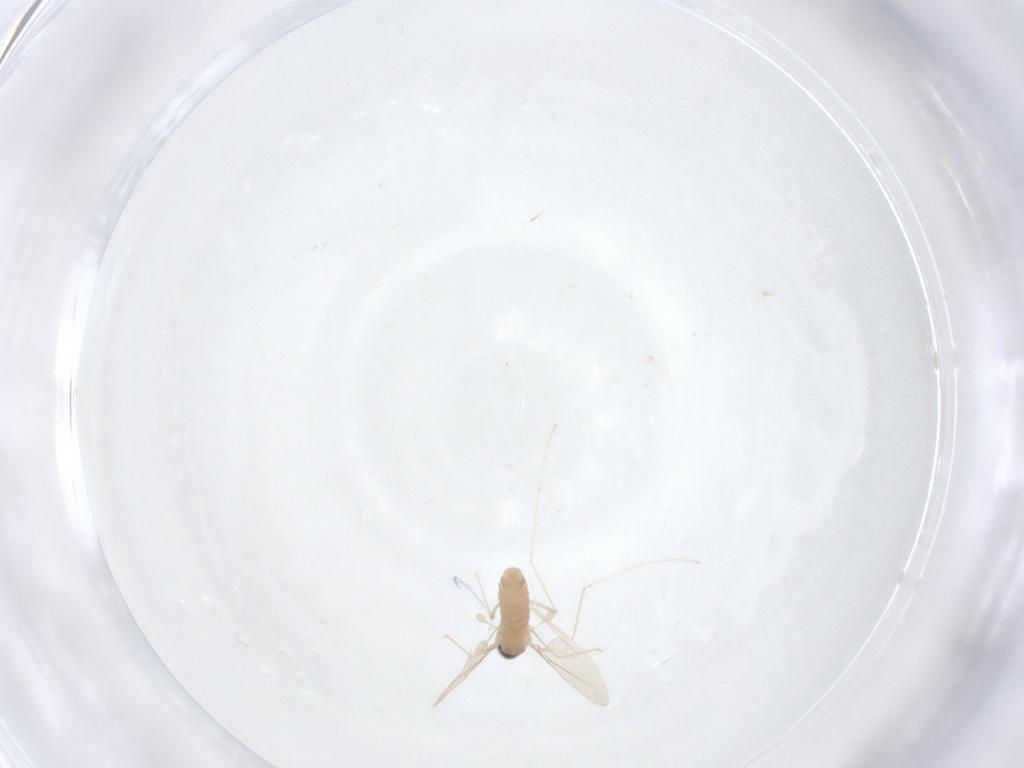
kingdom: Animalia
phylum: Arthropoda
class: Insecta
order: Diptera
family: Cecidomyiidae
